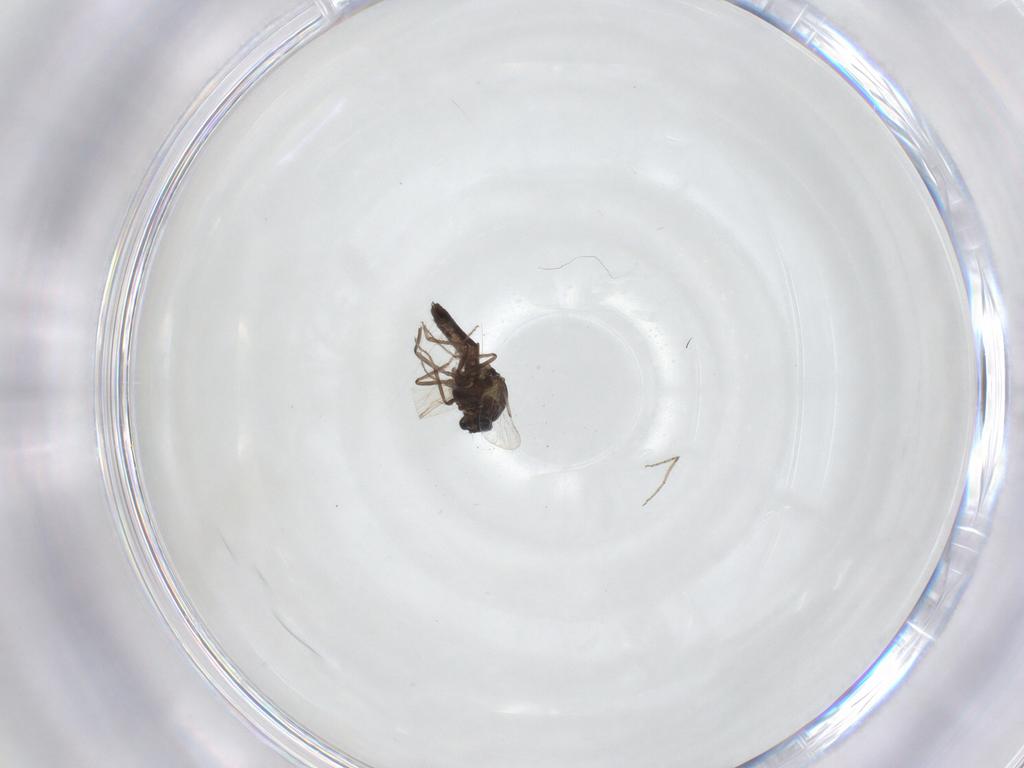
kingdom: Animalia
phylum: Arthropoda
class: Insecta
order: Diptera
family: Ceratopogonidae
